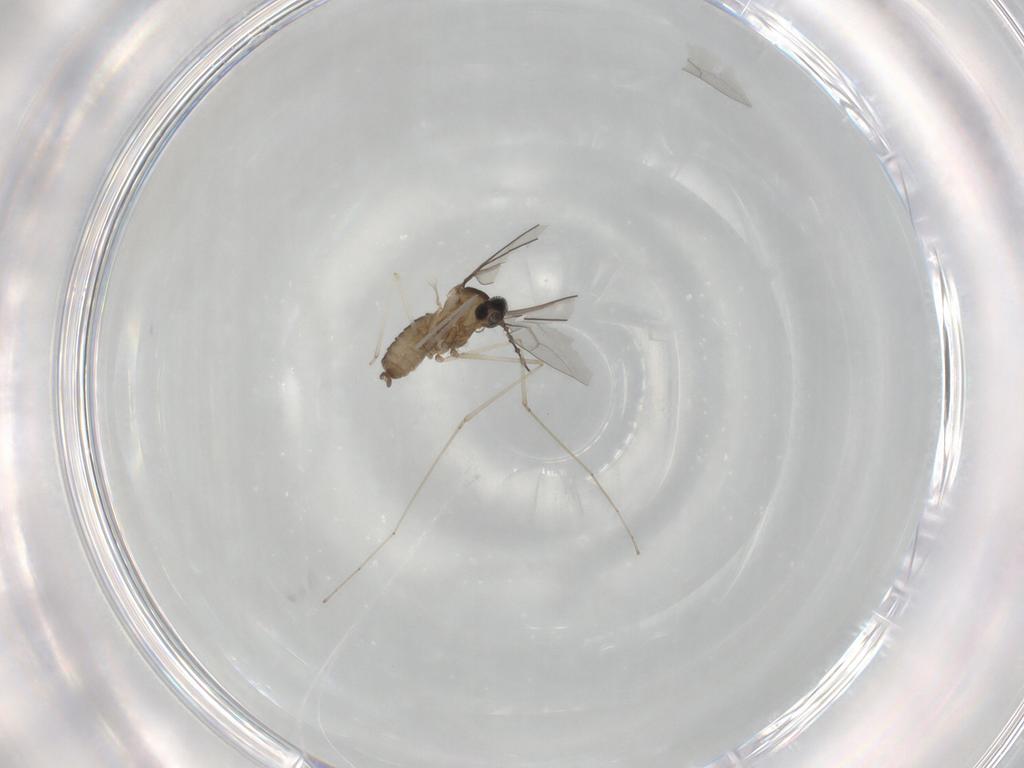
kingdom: Animalia
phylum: Arthropoda
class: Insecta
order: Diptera
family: Cecidomyiidae
